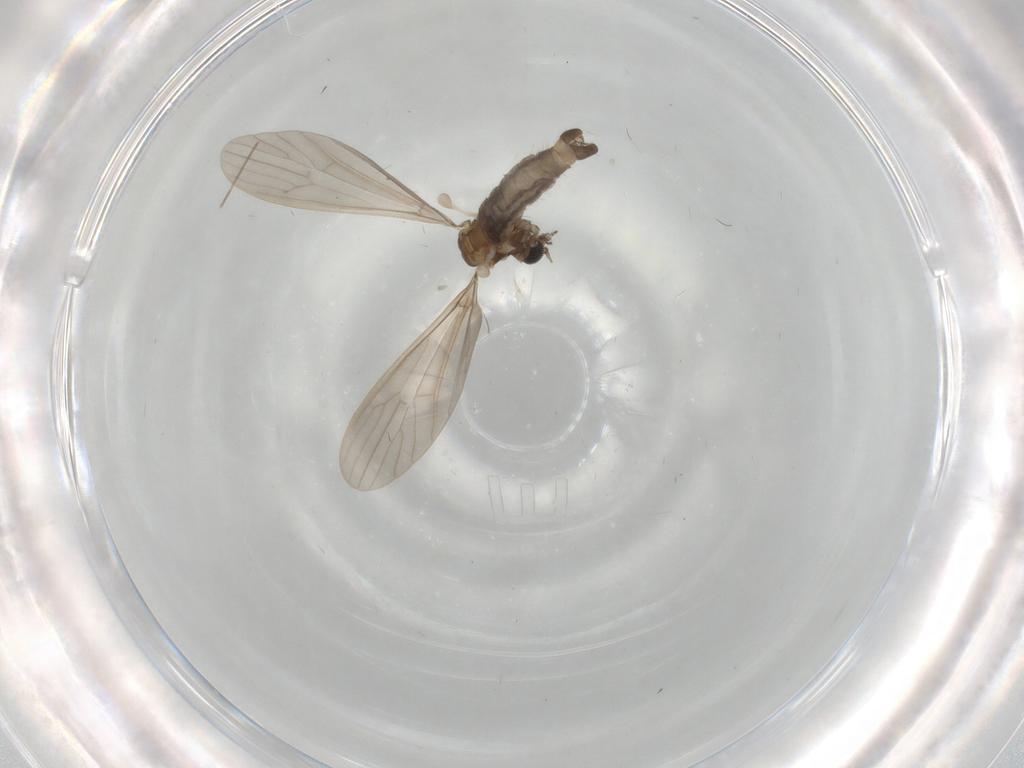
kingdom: Animalia
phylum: Arthropoda
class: Insecta
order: Diptera
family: Limoniidae
